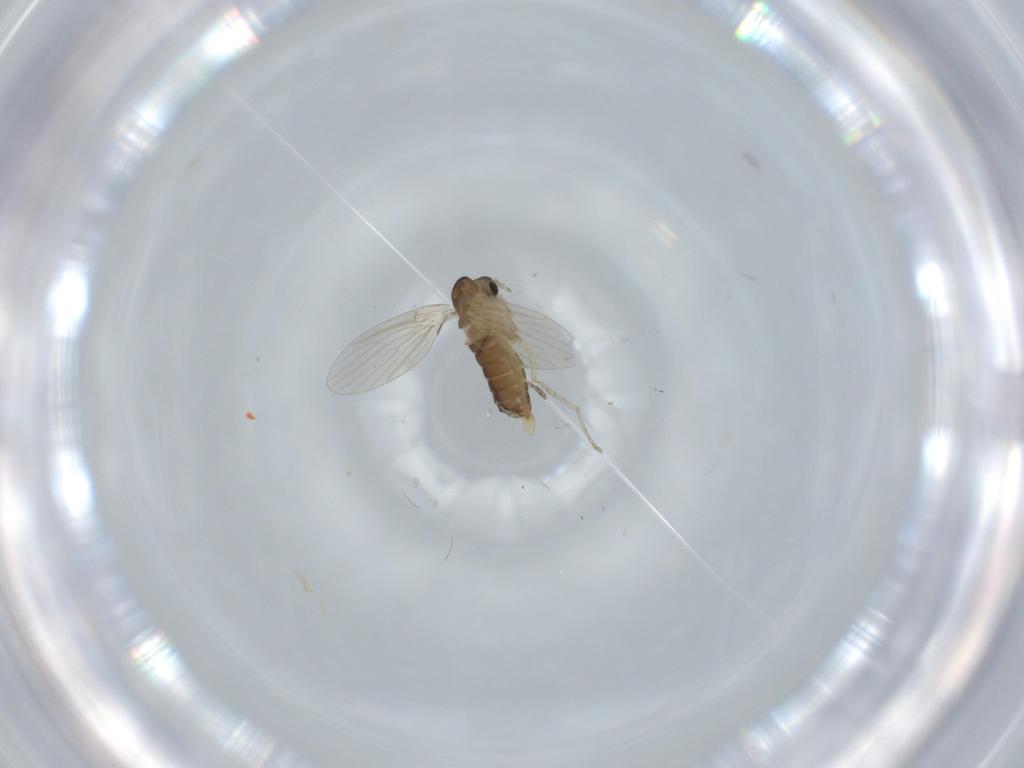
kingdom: Animalia
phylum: Arthropoda
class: Insecta
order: Diptera
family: Psychodidae
